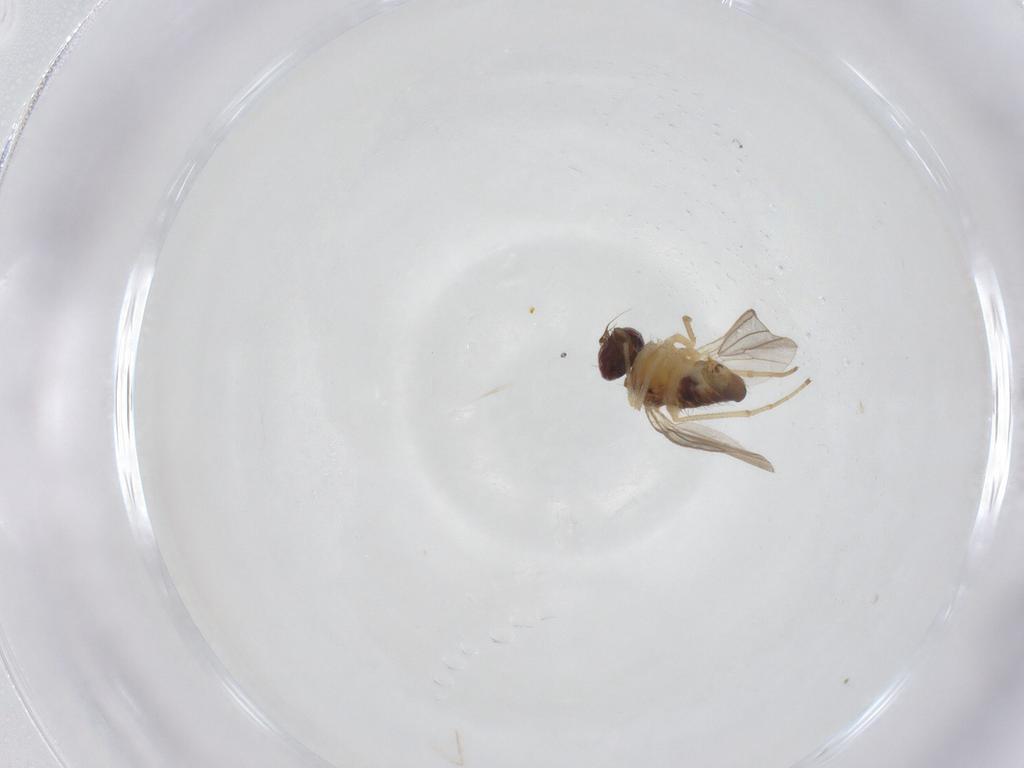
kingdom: Animalia
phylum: Arthropoda
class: Insecta
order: Diptera
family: Dolichopodidae
